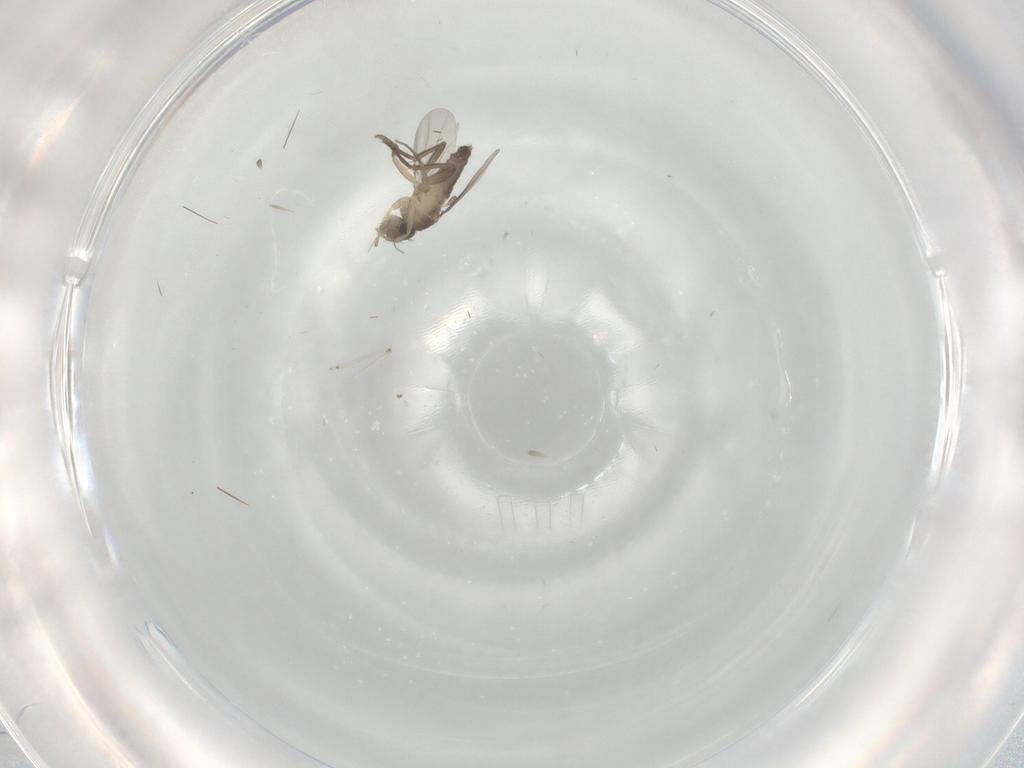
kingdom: Animalia
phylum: Arthropoda
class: Insecta
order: Diptera
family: Phoridae
